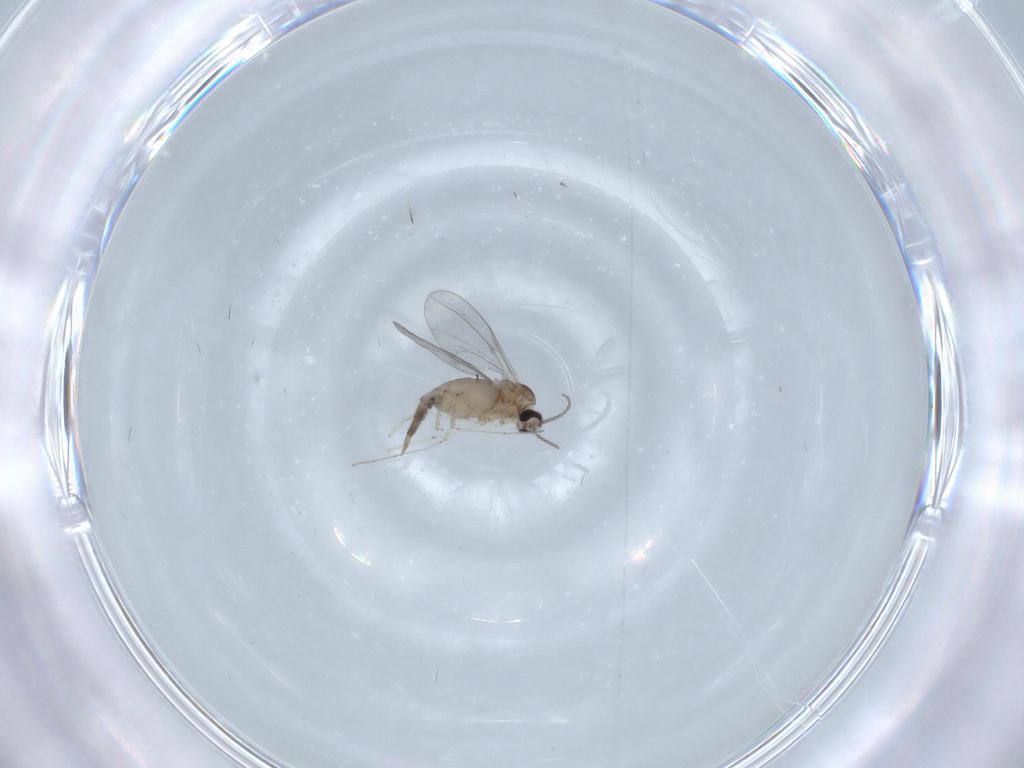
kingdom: Animalia
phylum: Arthropoda
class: Insecta
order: Diptera
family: Cecidomyiidae
